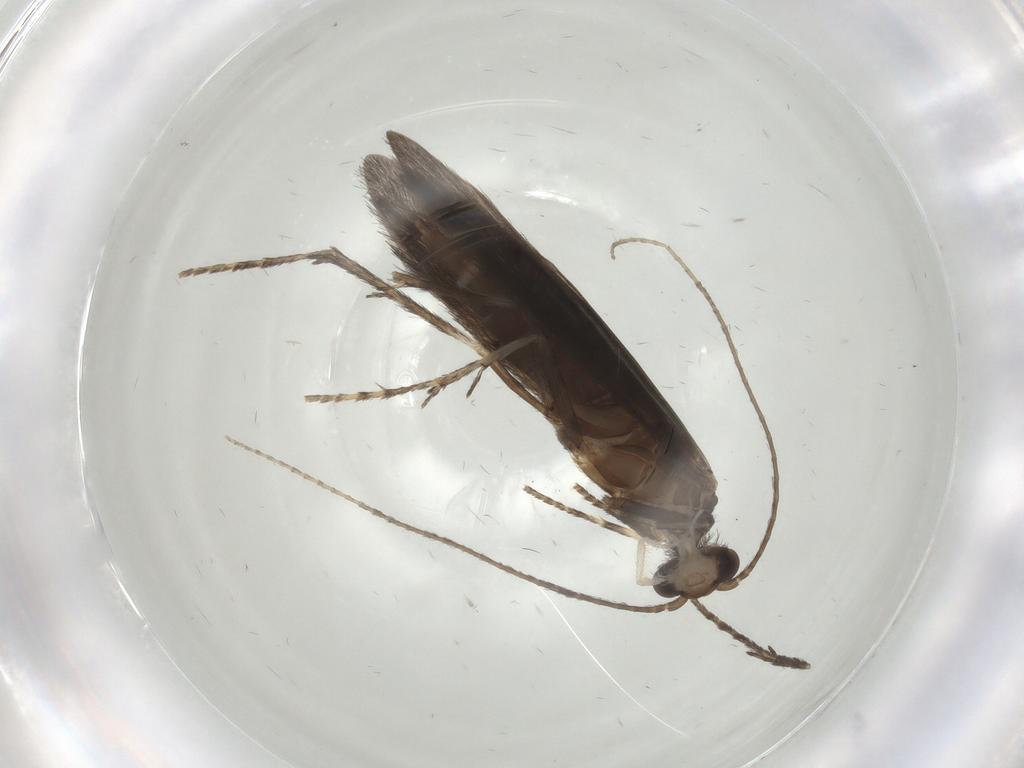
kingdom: Animalia
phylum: Arthropoda
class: Insecta
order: Trichoptera
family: Xiphocentronidae
